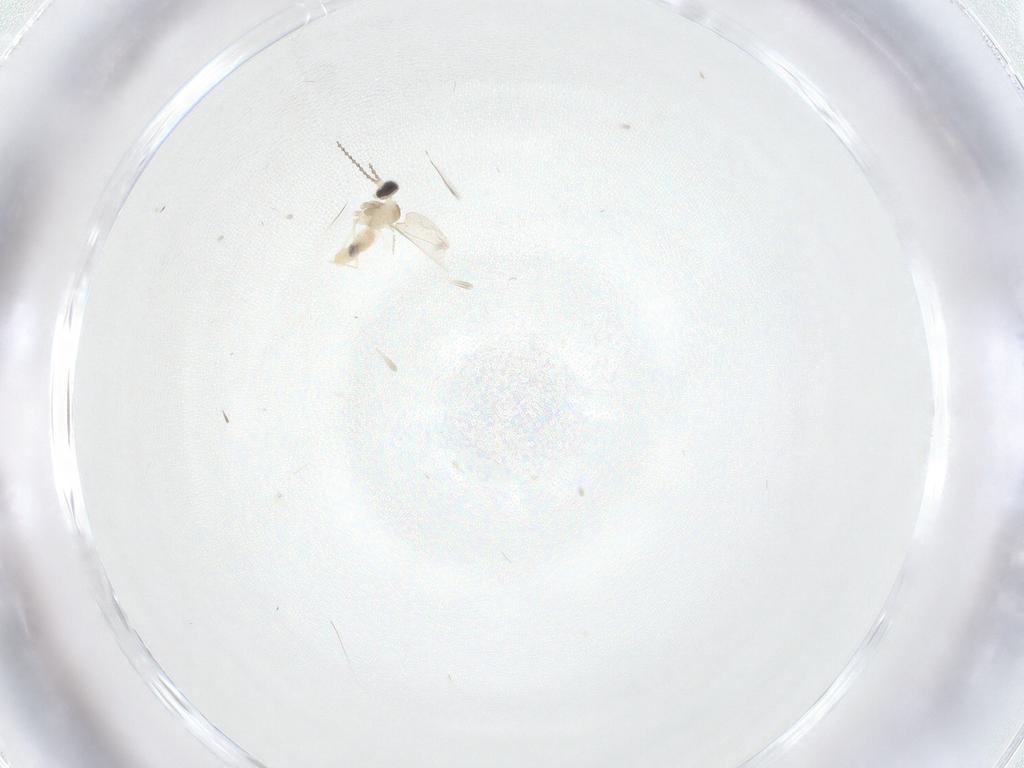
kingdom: Animalia
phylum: Arthropoda
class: Insecta
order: Diptera
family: Cecidomyiidae
